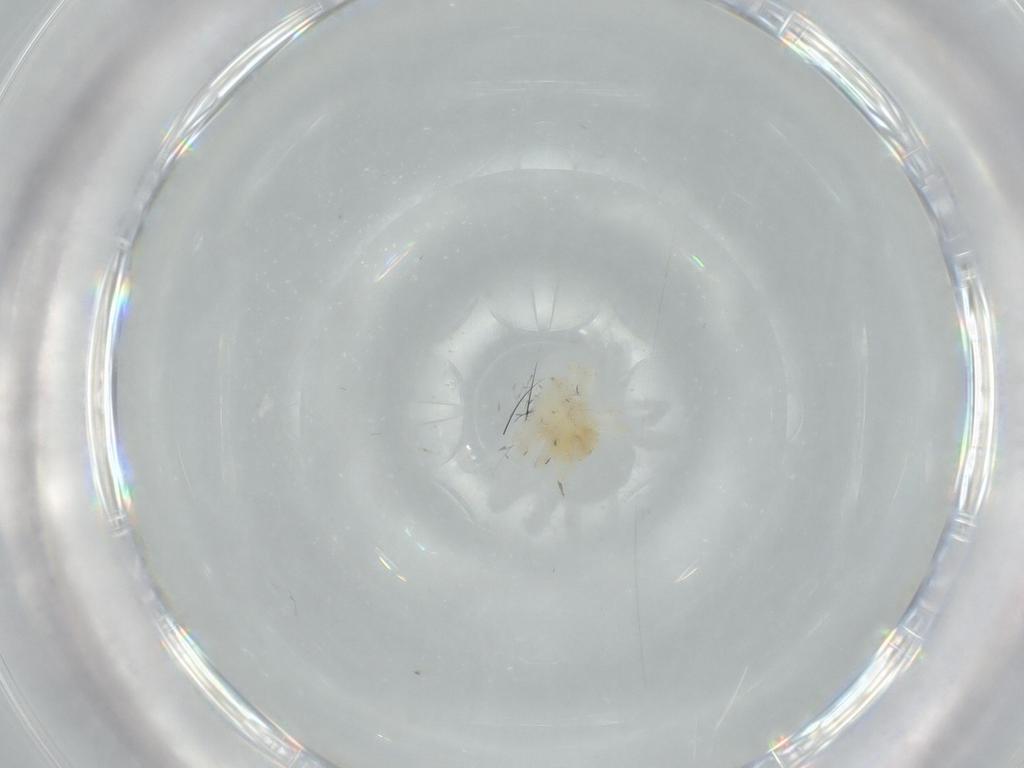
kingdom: Animalia
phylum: Arthropoda
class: Arachnida
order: Trombidiformes
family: Anystidae
